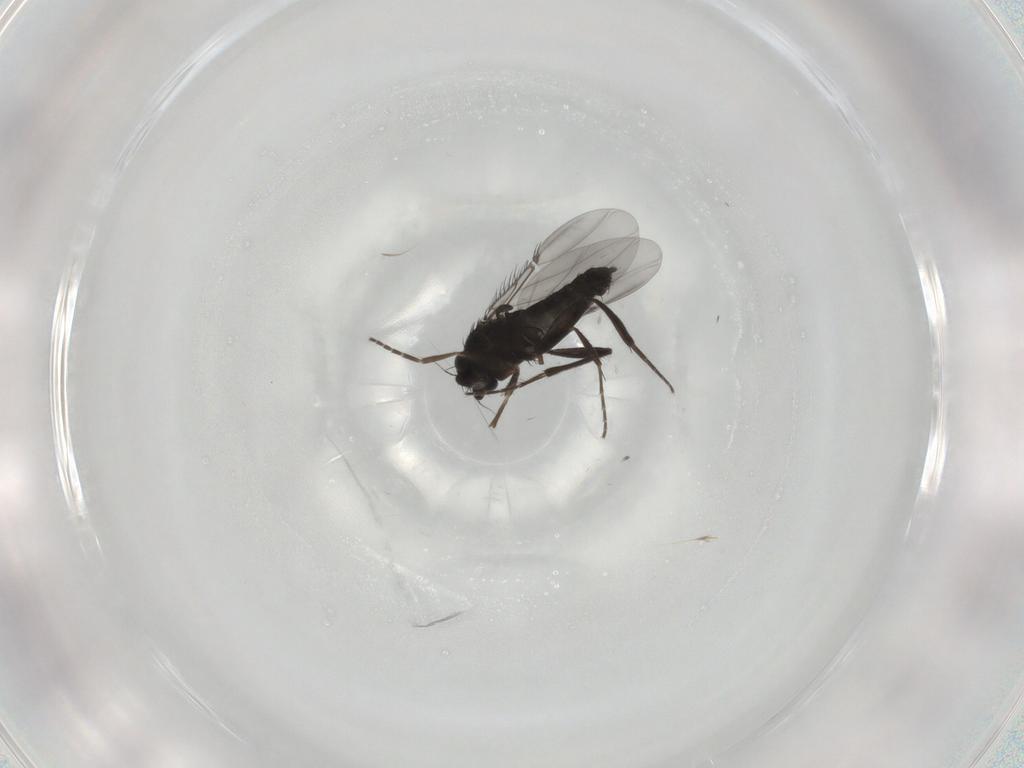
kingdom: Animalia
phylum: Arthropoda
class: Insecta
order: Diptera
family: Phoridae
